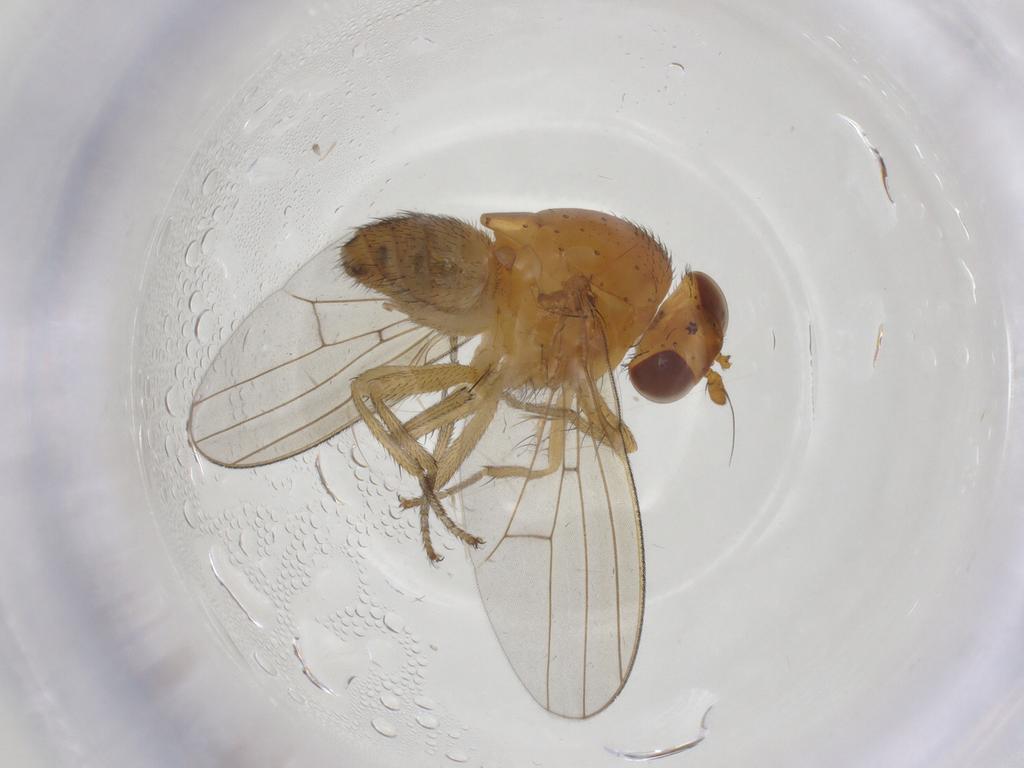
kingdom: Animalia
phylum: Arthropoda
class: Insecta
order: Diptera
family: Lauxaniidae
